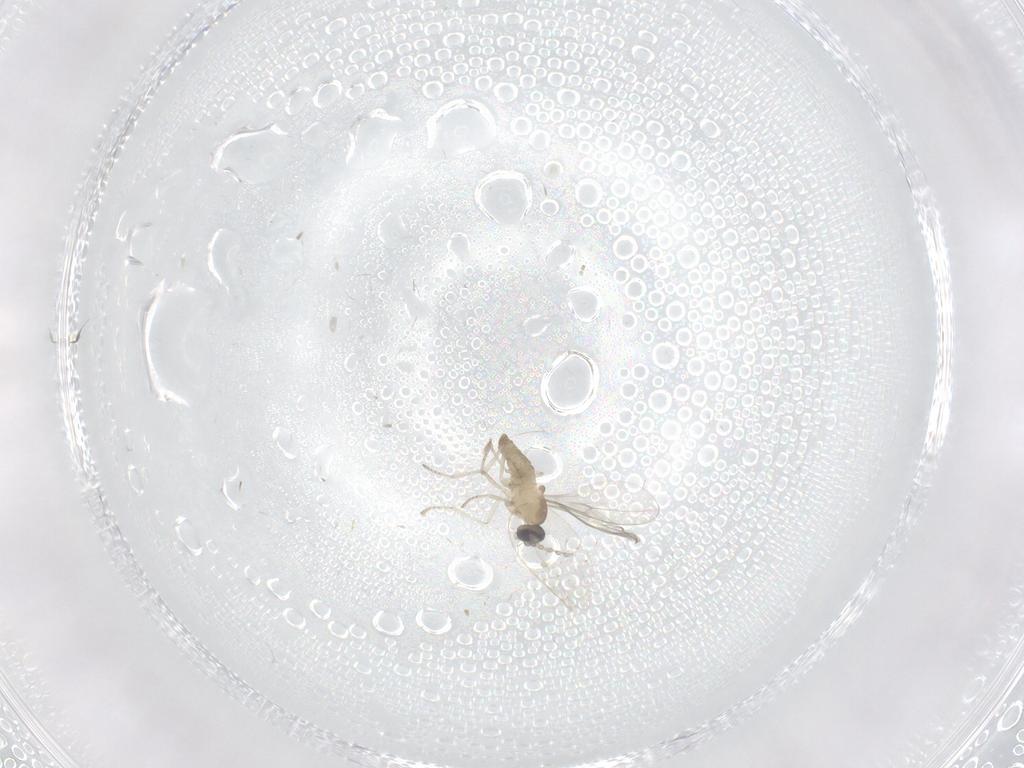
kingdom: Animalia
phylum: Arthropoda
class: Insecta
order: Diptera
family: Cecidomyiidae
